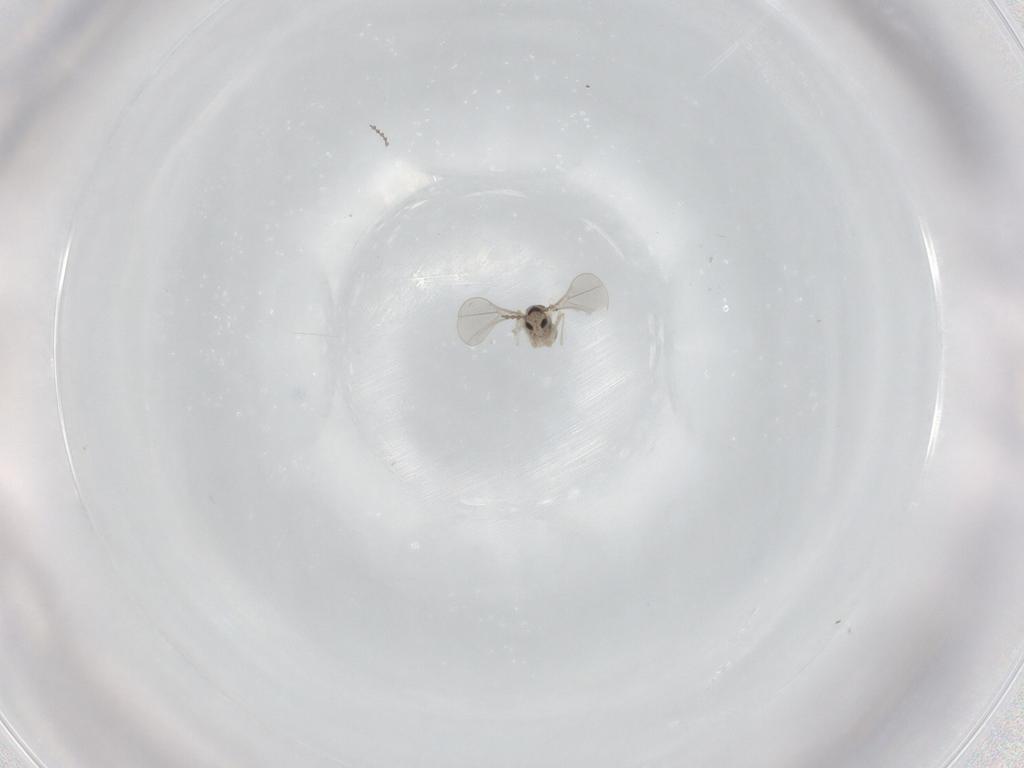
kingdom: Animalia
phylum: Arthropoda
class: Insecta
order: Diptera
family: Cecidomyiidae
